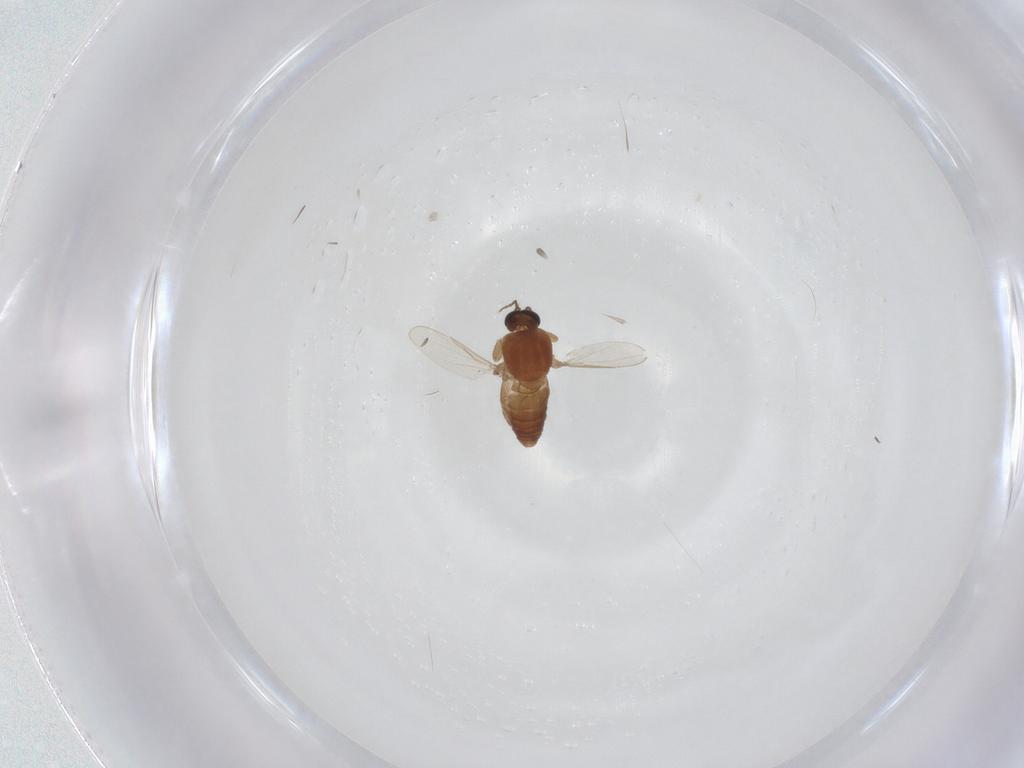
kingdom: Animalia
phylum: Arthropoda
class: Insecta
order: Diptera
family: Ceratopogonidae
